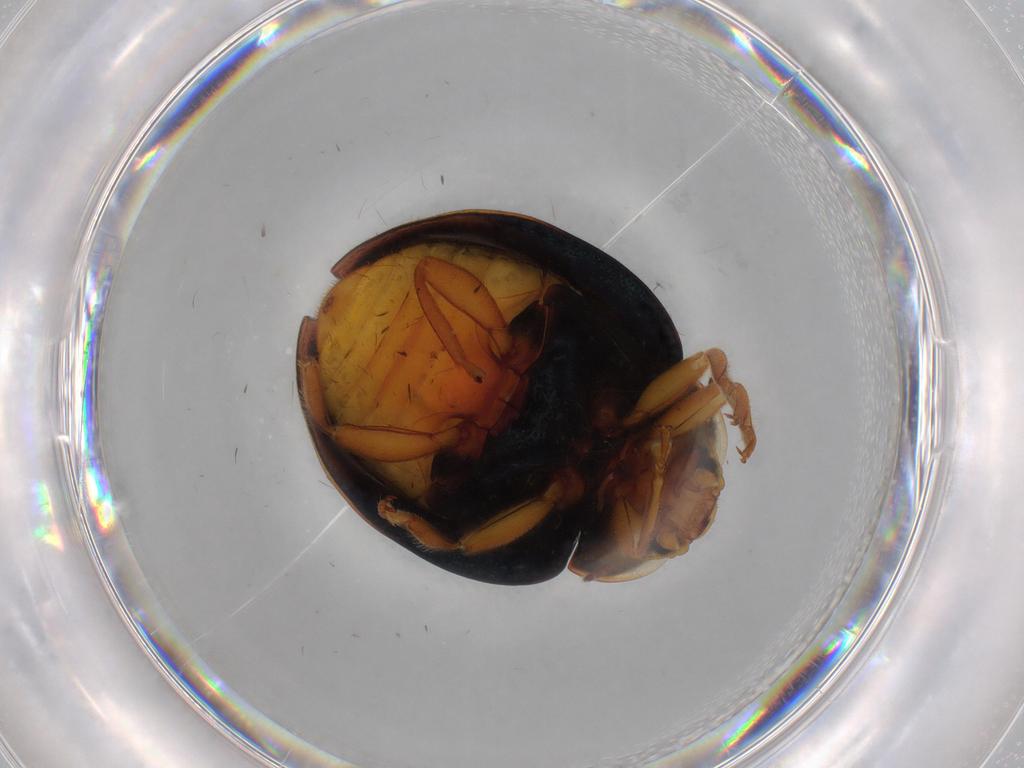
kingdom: Animalia
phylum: Arthropoda
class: Insecta
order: Coleoptera
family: Coccinellidae
